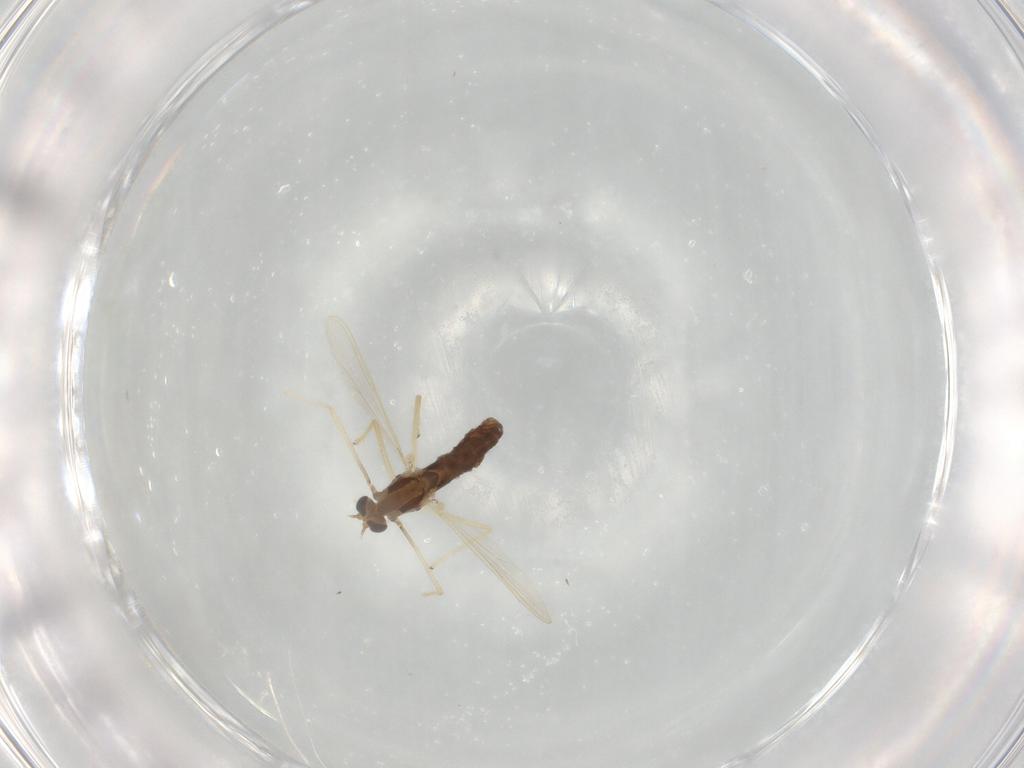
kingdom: Animalia
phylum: Arthropoda
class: Insecta
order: Diptera
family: Chironomidae
